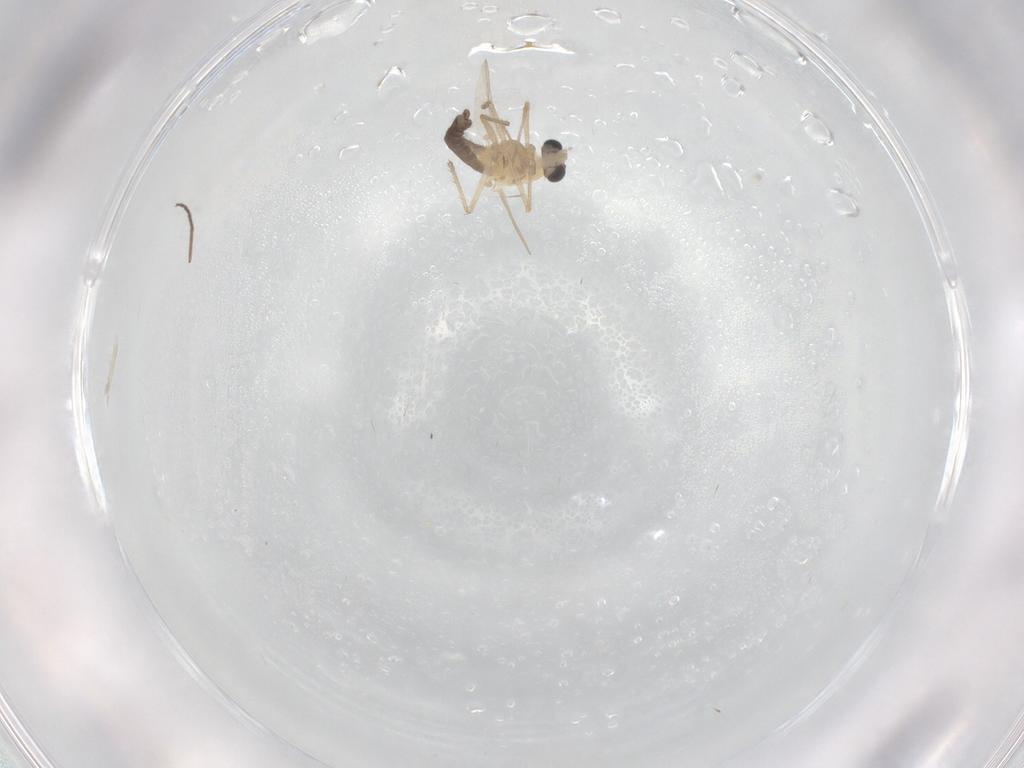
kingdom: Animalia
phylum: Arthropoda
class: Insecta
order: Diptera
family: Chironomidae
